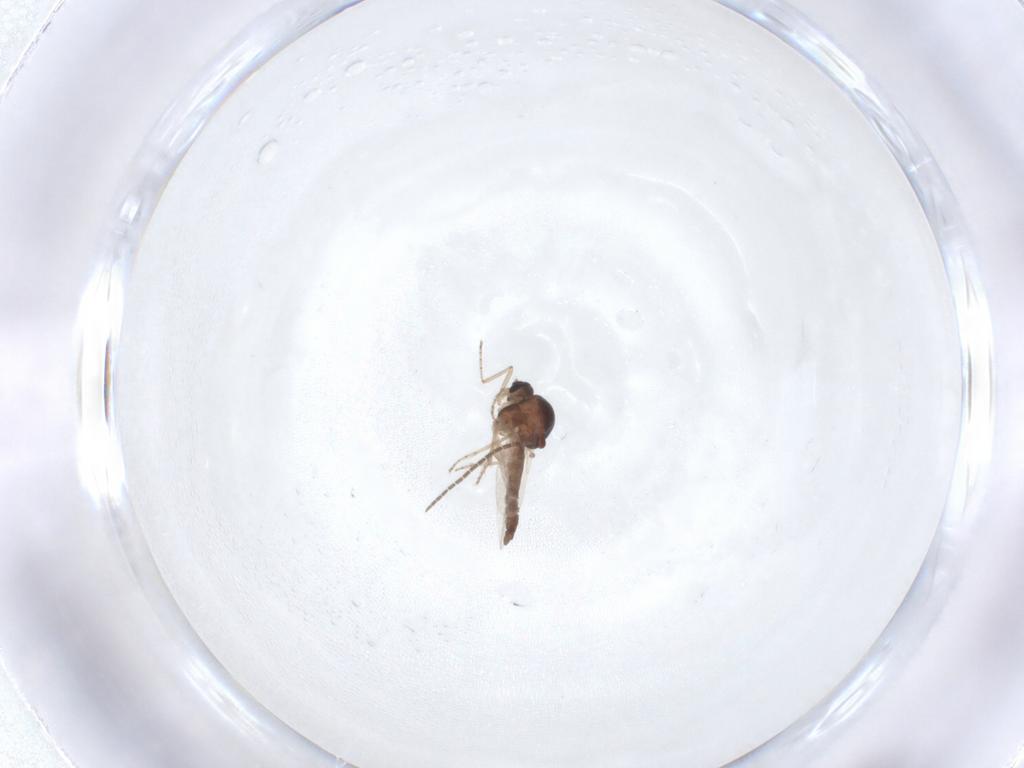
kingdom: Animalia
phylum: Arthropoda
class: Insecta
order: Diptera
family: Ceratopogonidae
